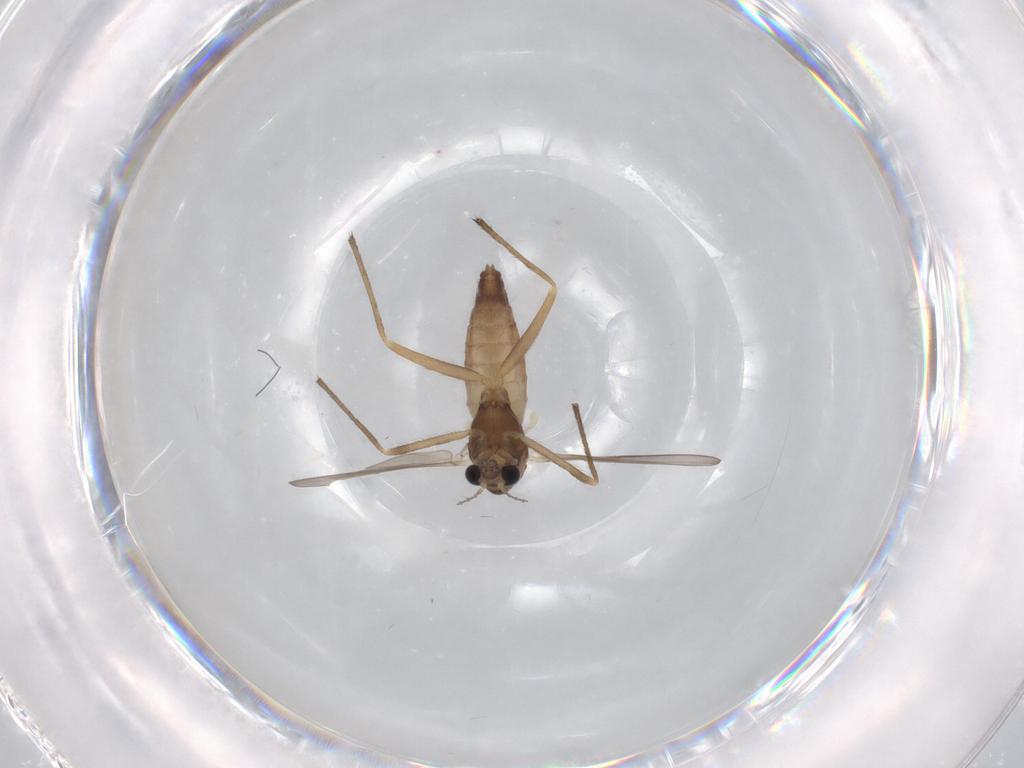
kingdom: Animalia
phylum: Arthropoda
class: Insecta
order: Diptera
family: Chironomidae
